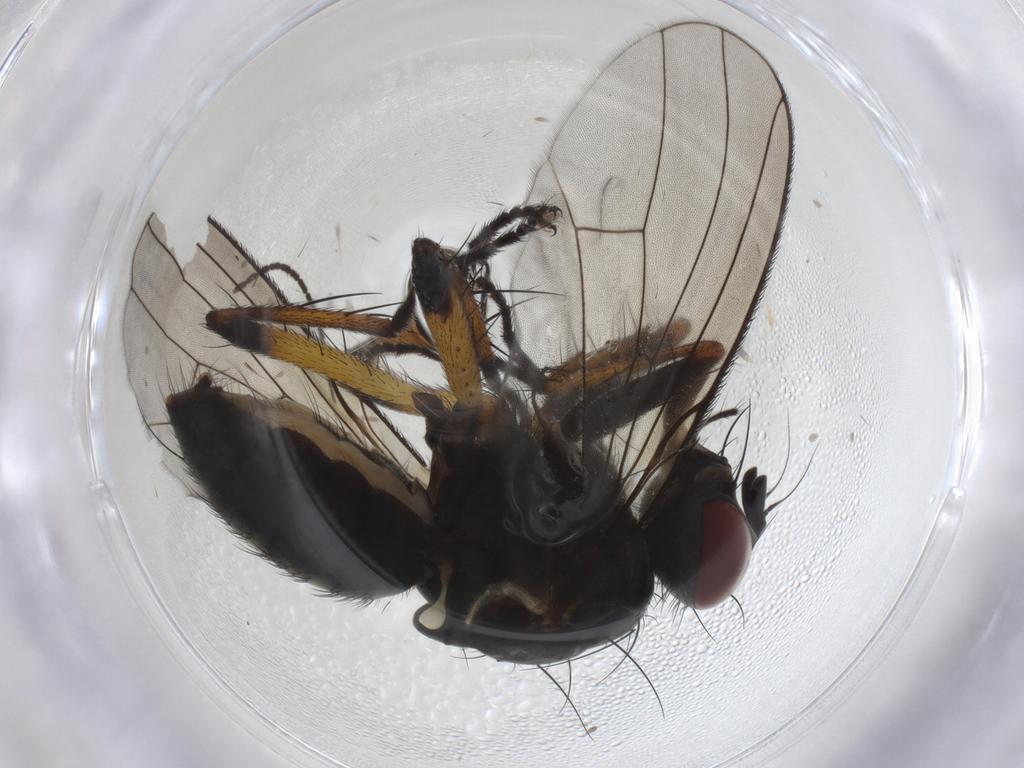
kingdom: Animalia
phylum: Arthropoda
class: Insecta
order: Diptera
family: Muscidae
